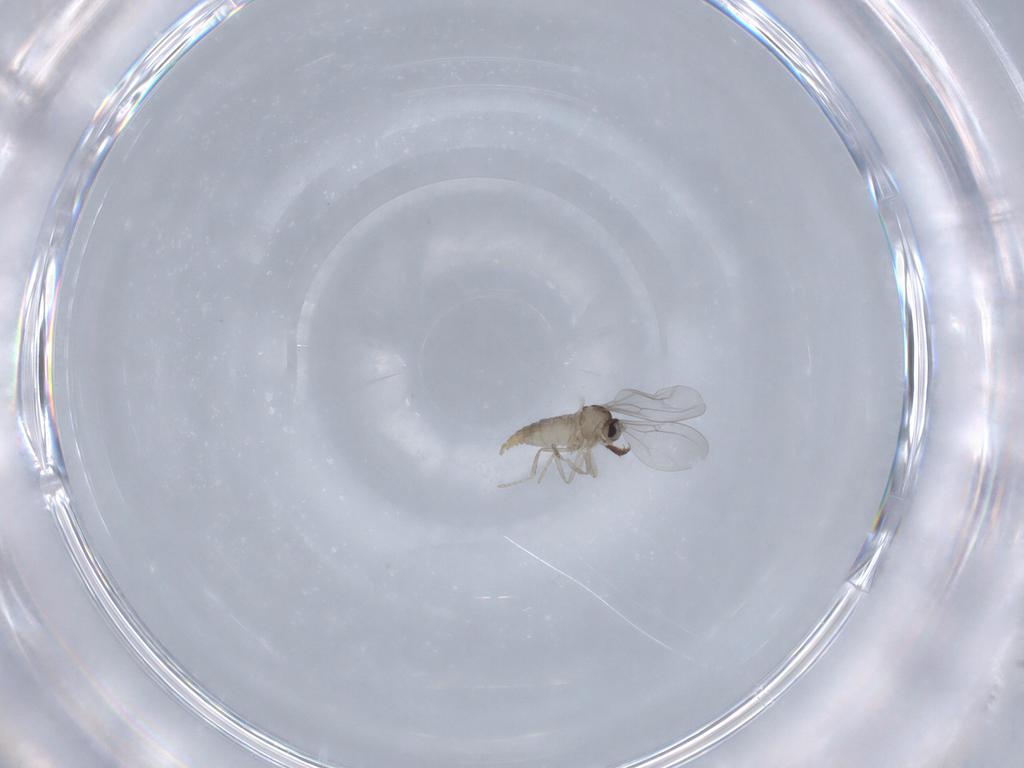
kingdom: Animalia
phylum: Arthropoda
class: Insecta
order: Diptera
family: Cecidomyiidae
